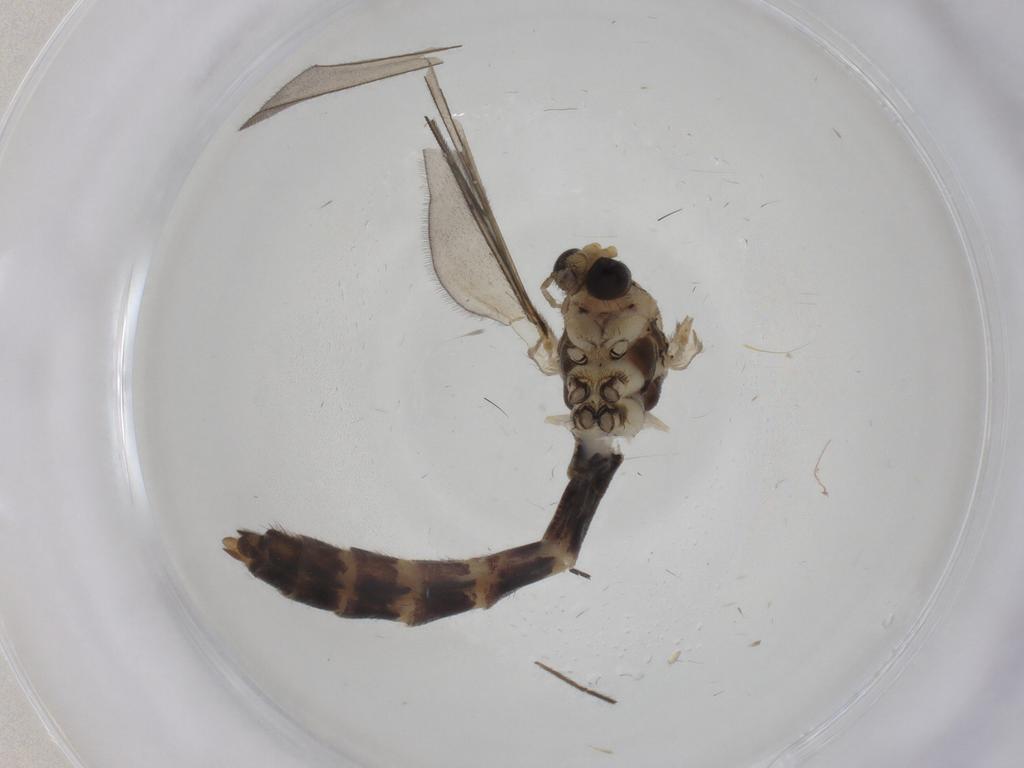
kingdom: Animalia
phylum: Arthropoda
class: Insecta
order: Diptera
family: Mycetophilidae
